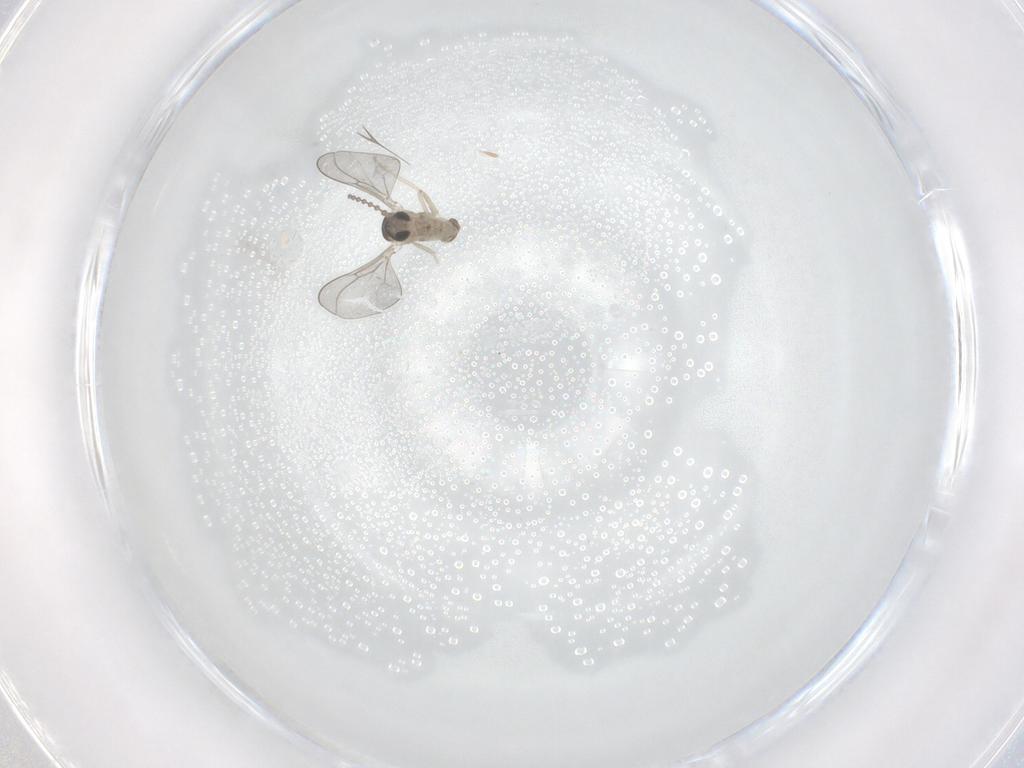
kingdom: Animalia
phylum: Arthropoda
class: Insecta
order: Diptera
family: Cecidomyiidae
